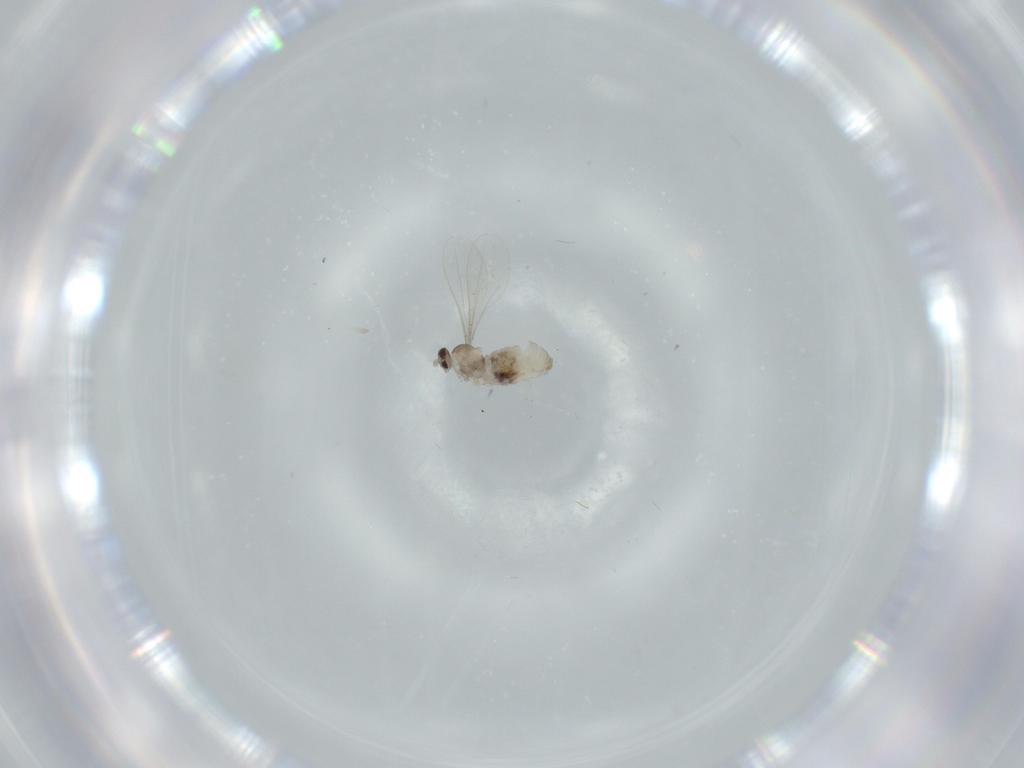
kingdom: Animalia
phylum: Arthropoda
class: Insecta
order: Diptera
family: Cecidomyiidae
